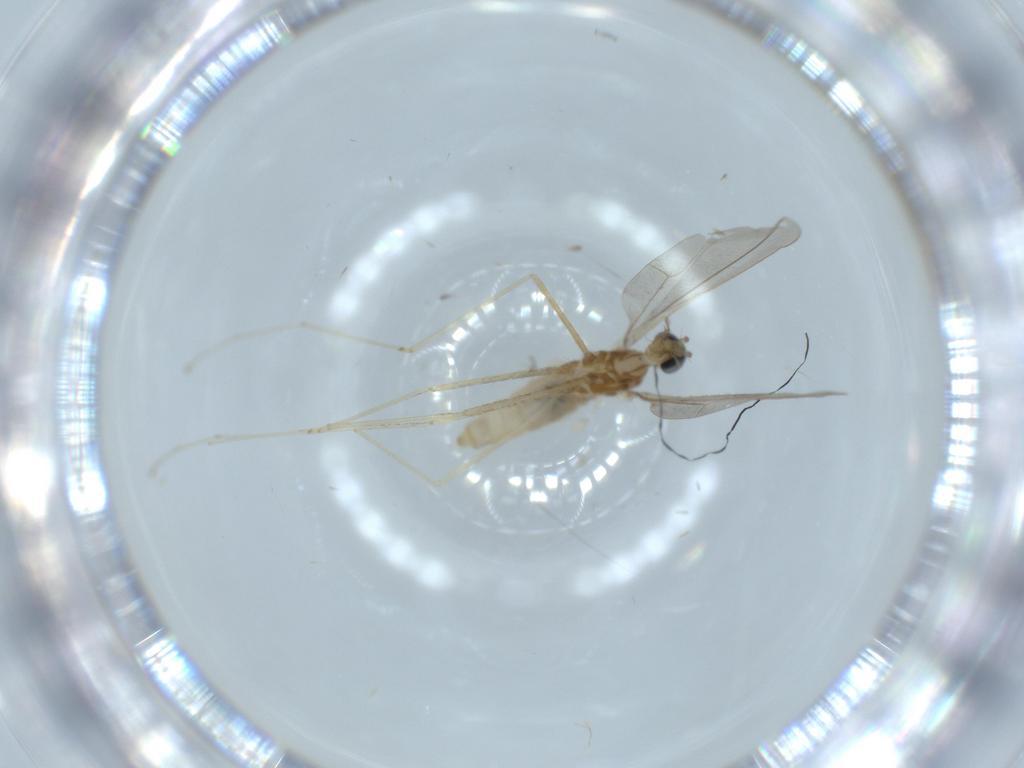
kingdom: Animalia
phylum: Arthropoda
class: Insecta
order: Diptera
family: Cecidomyiidae
